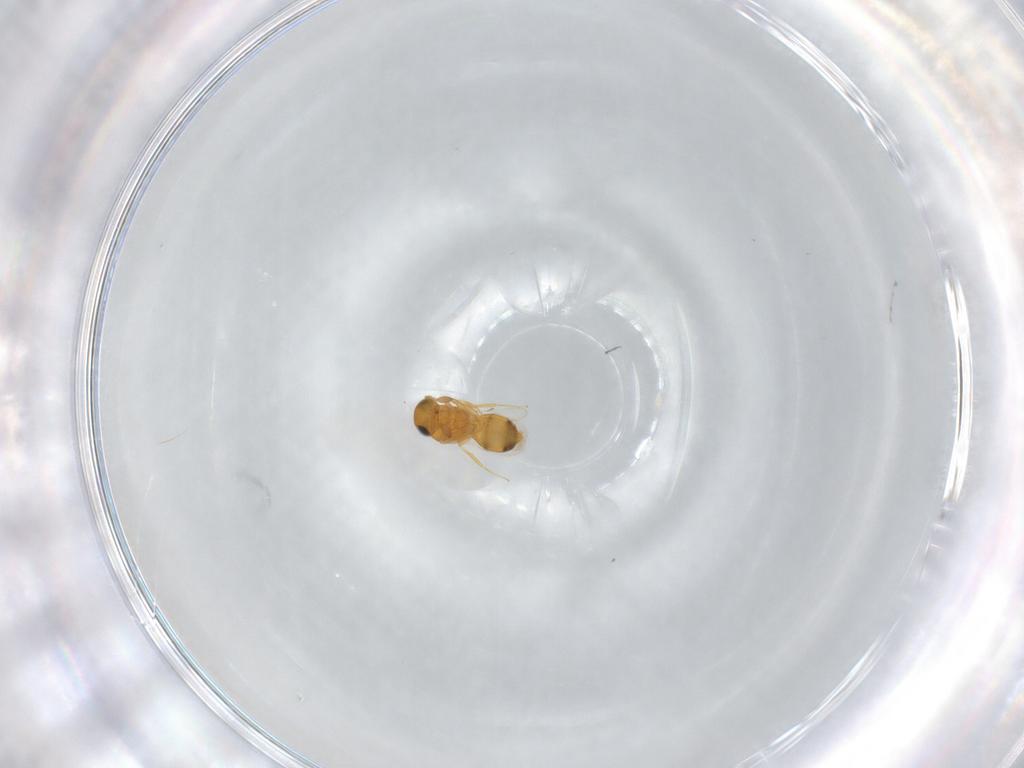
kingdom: Animalia
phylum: Arthropoda
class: Insecta
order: Hymenoptera
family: Scelionidae
